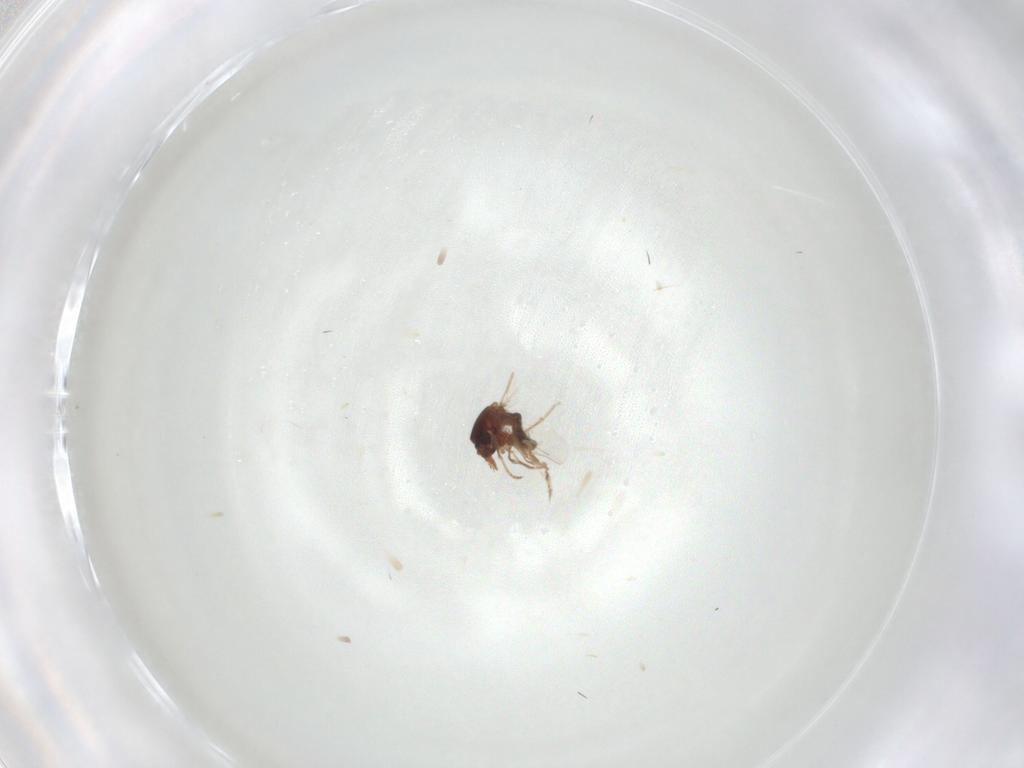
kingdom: Animalia
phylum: Arthropoda
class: Insecta
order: Diptera
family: Ceratopogonidae
